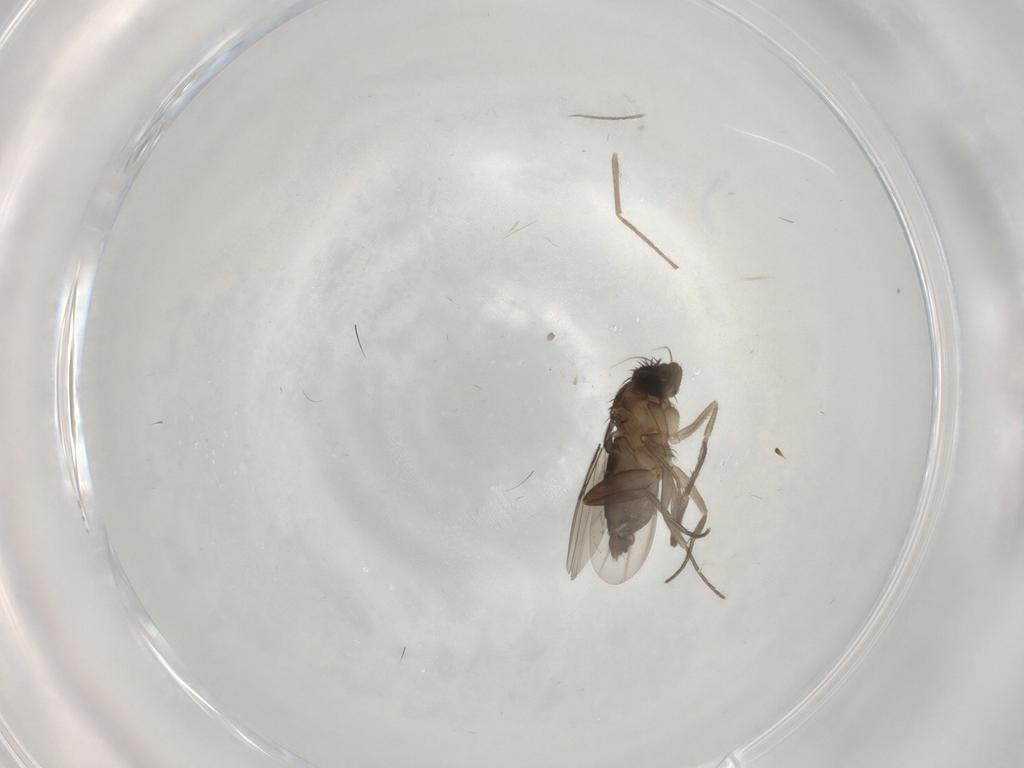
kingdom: Animalia
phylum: Arthropoda
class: Insecta
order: Diptera
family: Phoridae
